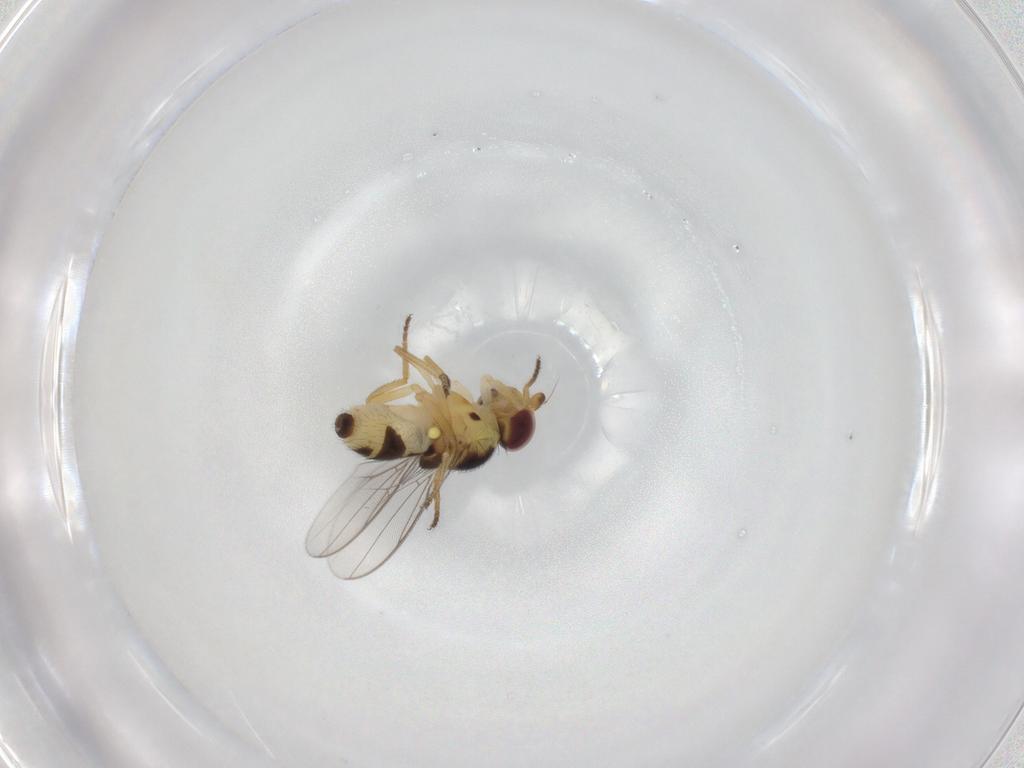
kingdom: Animalia
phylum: Arthropoda
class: Insecta
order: Diptera
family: Chloropidae
